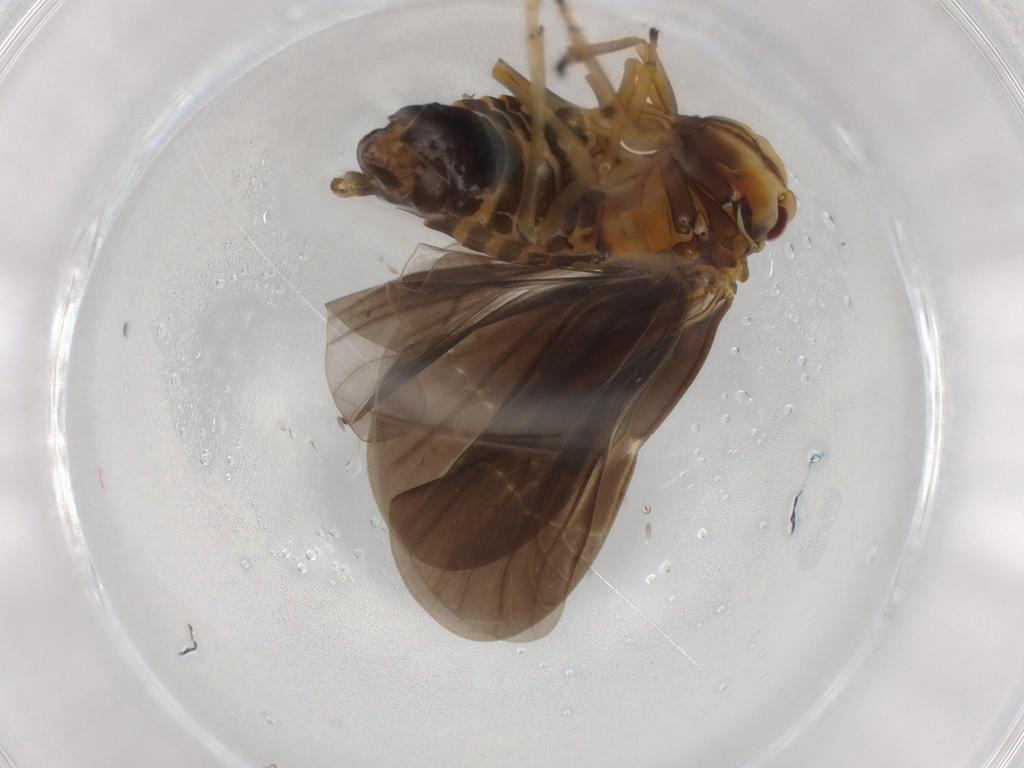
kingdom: Animalia
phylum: Arthropoda
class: Insecta
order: Hemiptera
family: Derbidae
